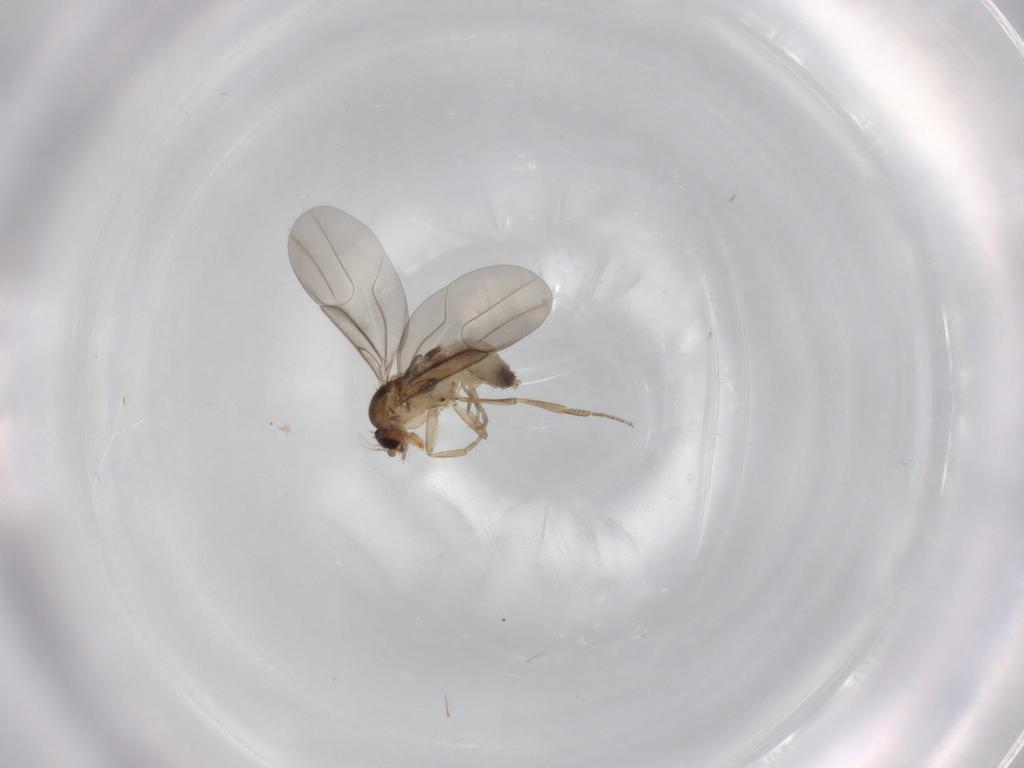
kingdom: Animalia
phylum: Arthropoda
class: Insecta
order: Diptera
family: Phoridae
